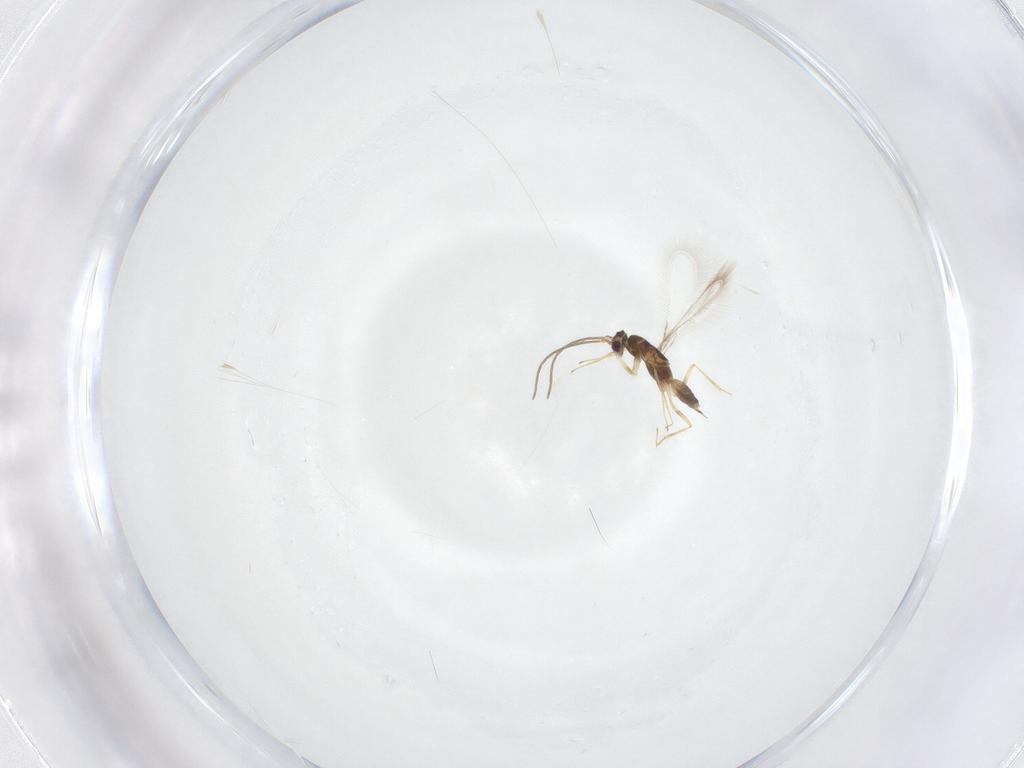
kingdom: Animalia
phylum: Arthropoda
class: Insecta
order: Hymenoptera
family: Mymaridae
